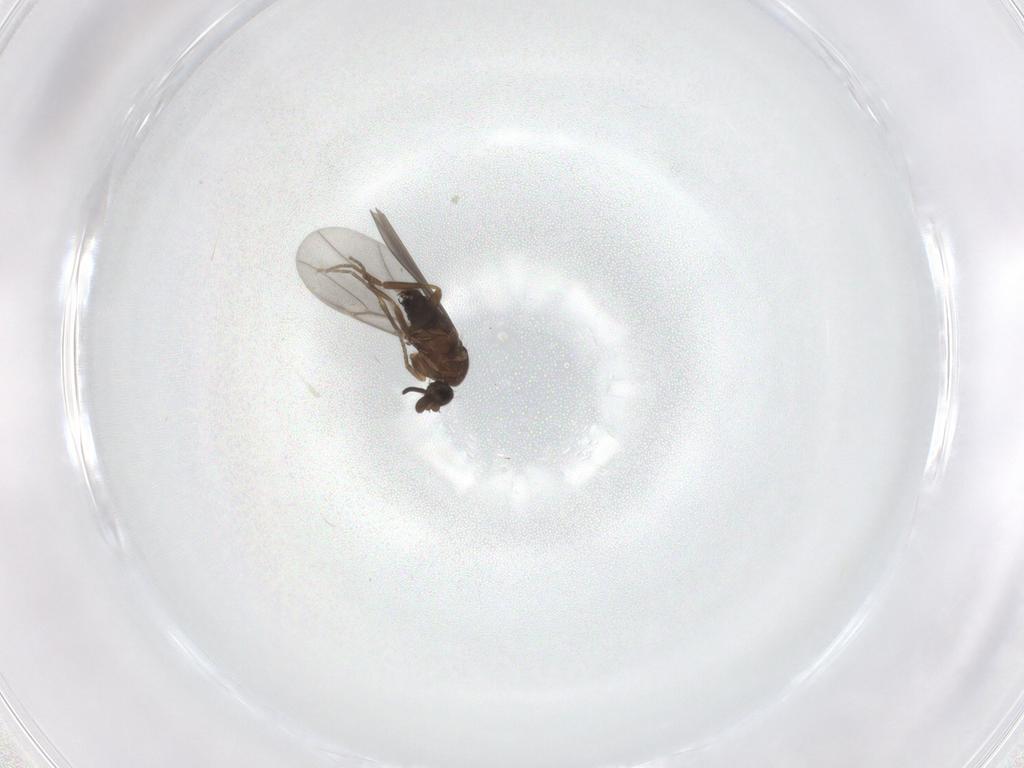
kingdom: Animalia
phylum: Arthropoda
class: Insecta
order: Diptera
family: Phoridae
